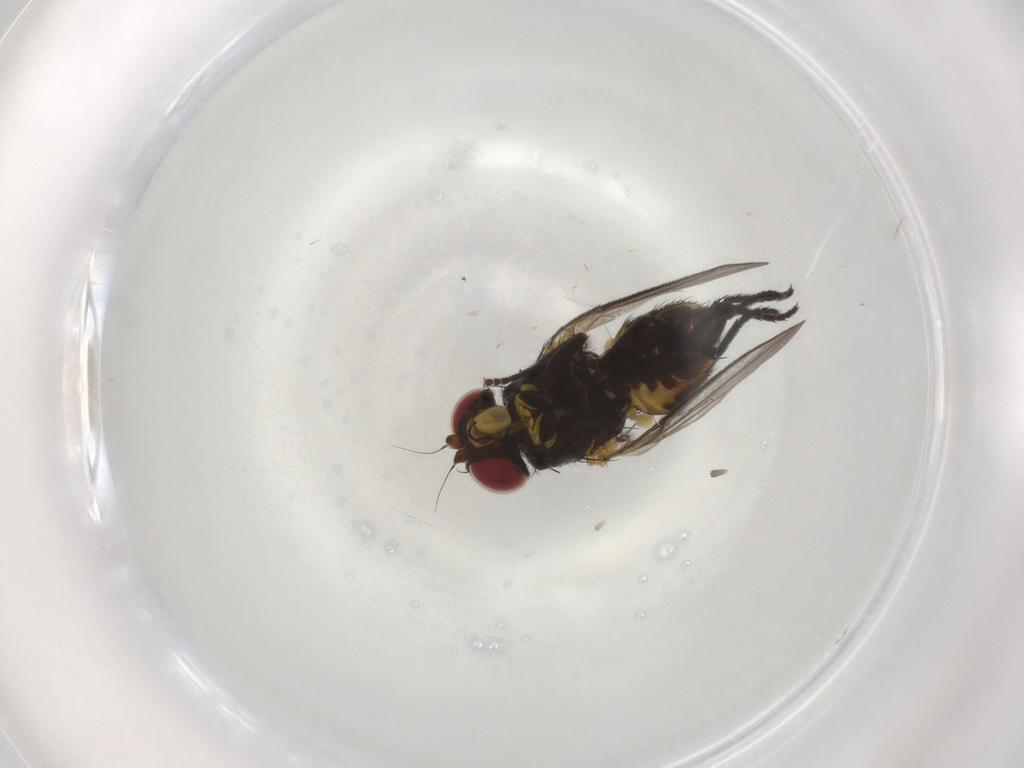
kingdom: Animalia
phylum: Arthropoda
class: Insecta
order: Diptera
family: Agromyzidae
